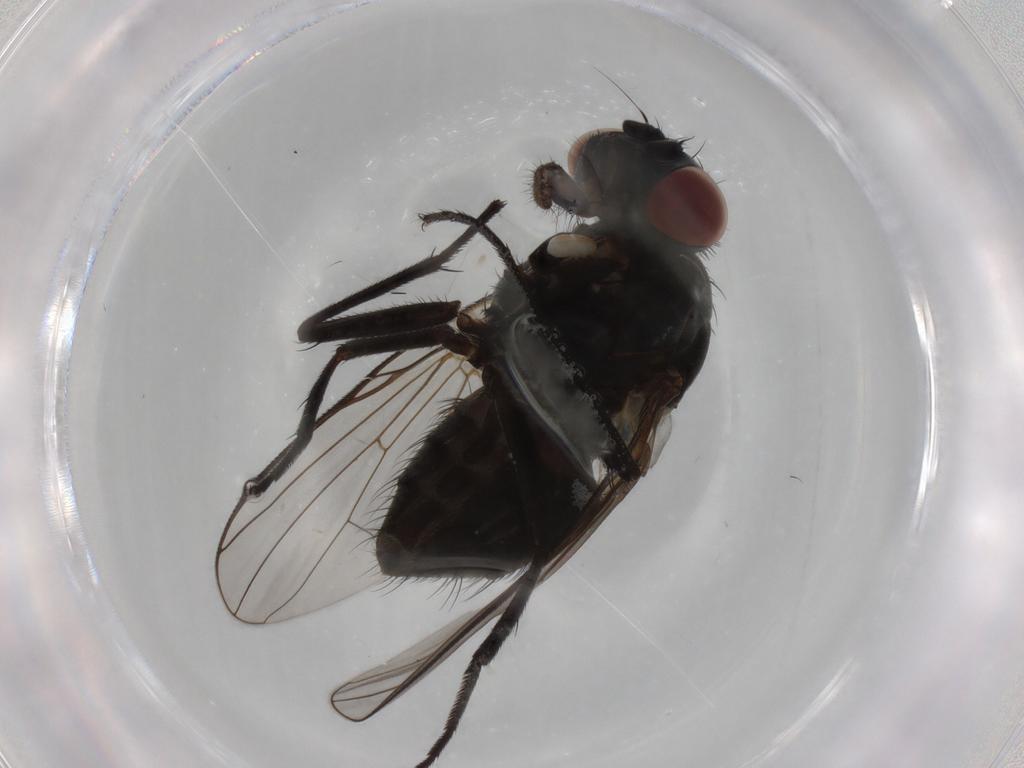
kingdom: Animalia
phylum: Arthropoda
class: Insecta
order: Diptera
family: Muscidae
